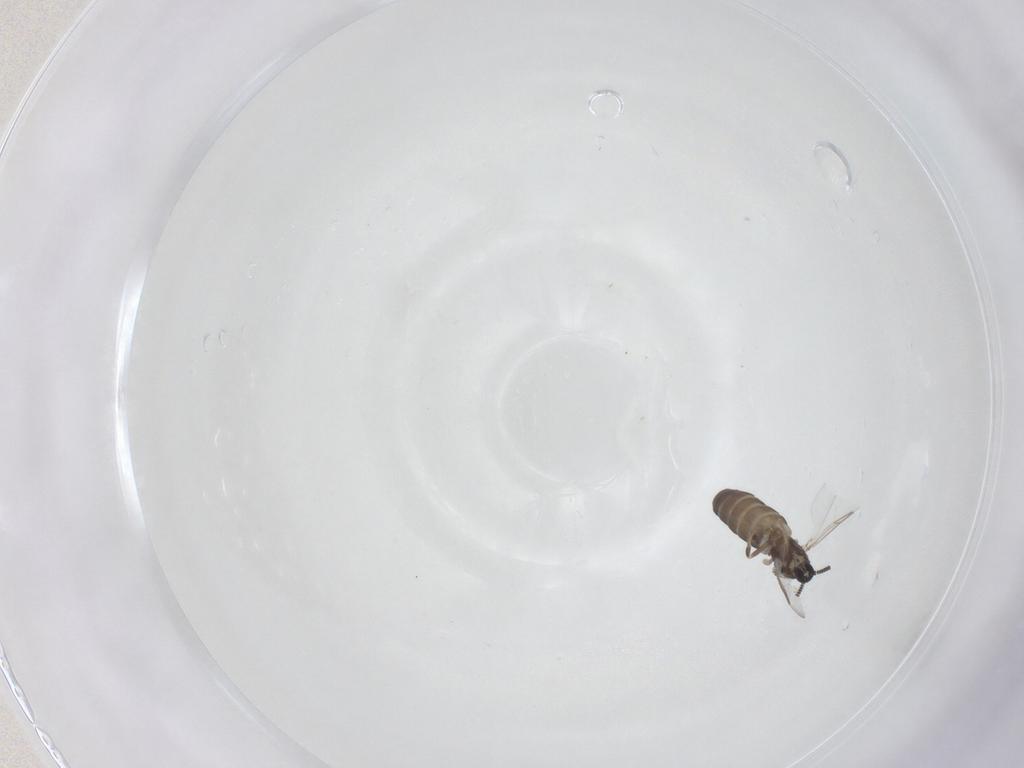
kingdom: Animalia
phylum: Arthropoda
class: Insecta
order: Diptera
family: Scatopsidae
